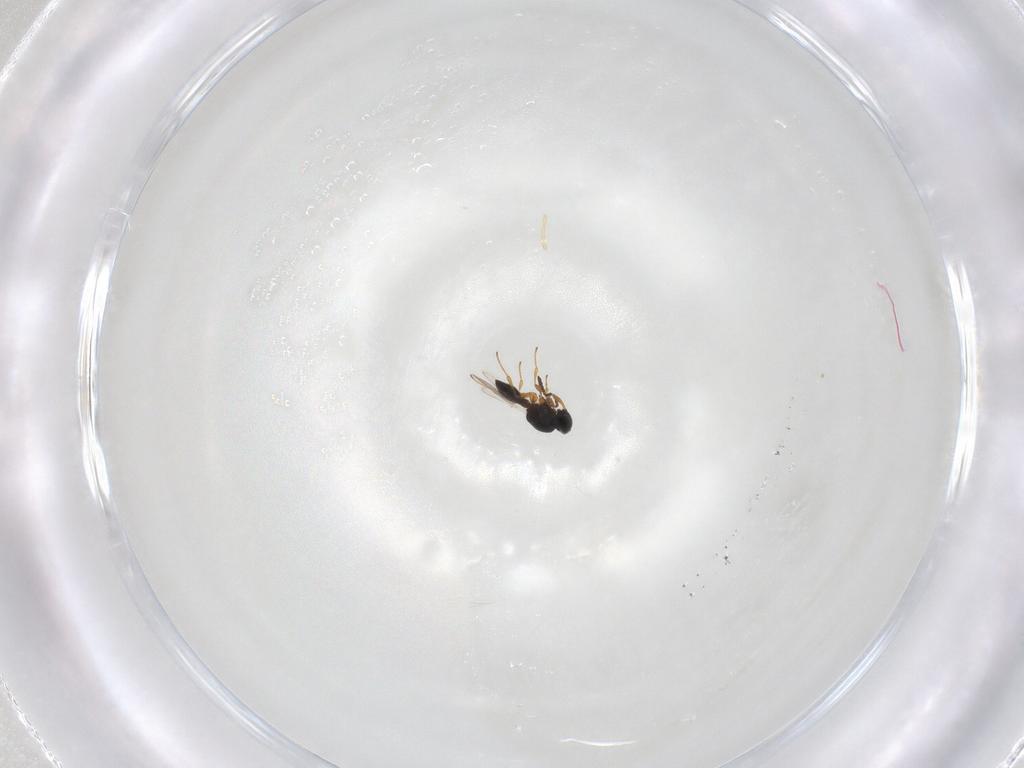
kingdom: Animalia
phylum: Arthropoda
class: Insecta
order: Hymenoptera
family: Platygastridae
